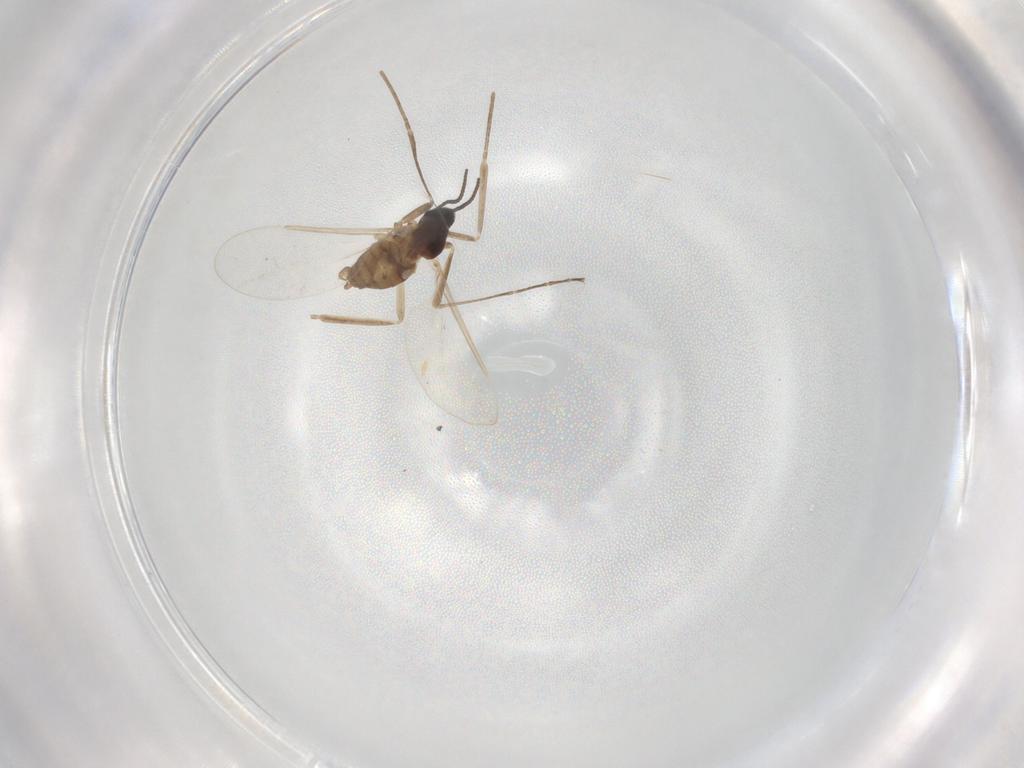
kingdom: Animalia
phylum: Arthropoda
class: Insecta
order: Diptera
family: Cecidomyiidae
